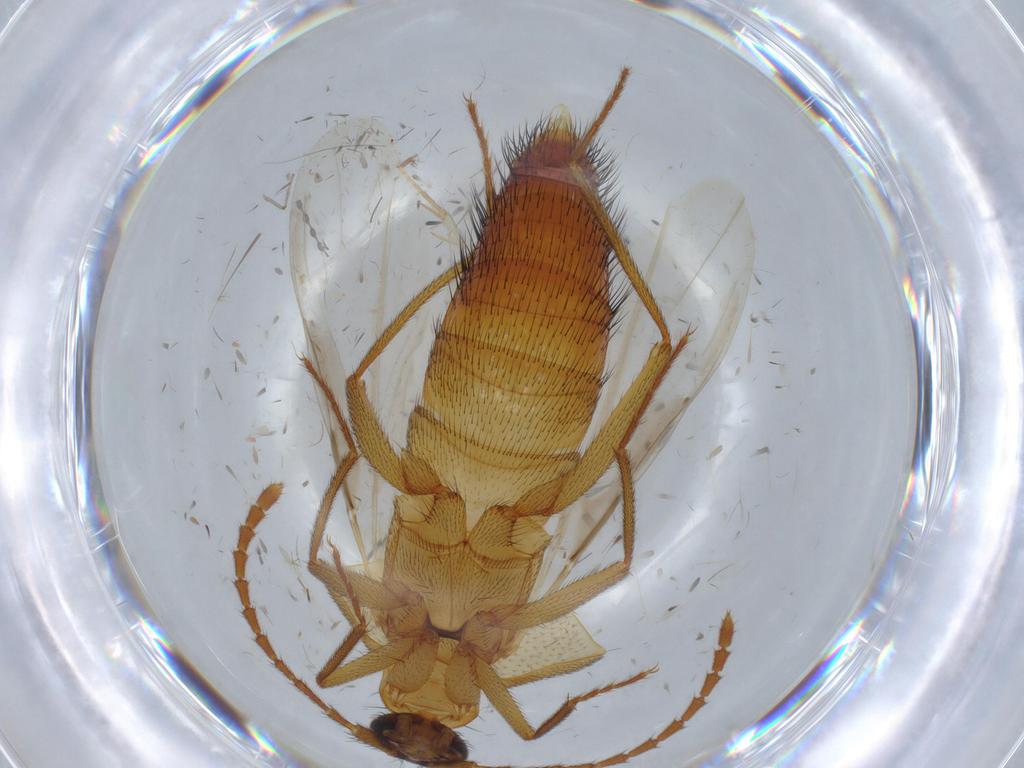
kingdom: Animalia
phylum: Arthropoda
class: Insecta
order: Coleoptera
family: Staphylinidae
